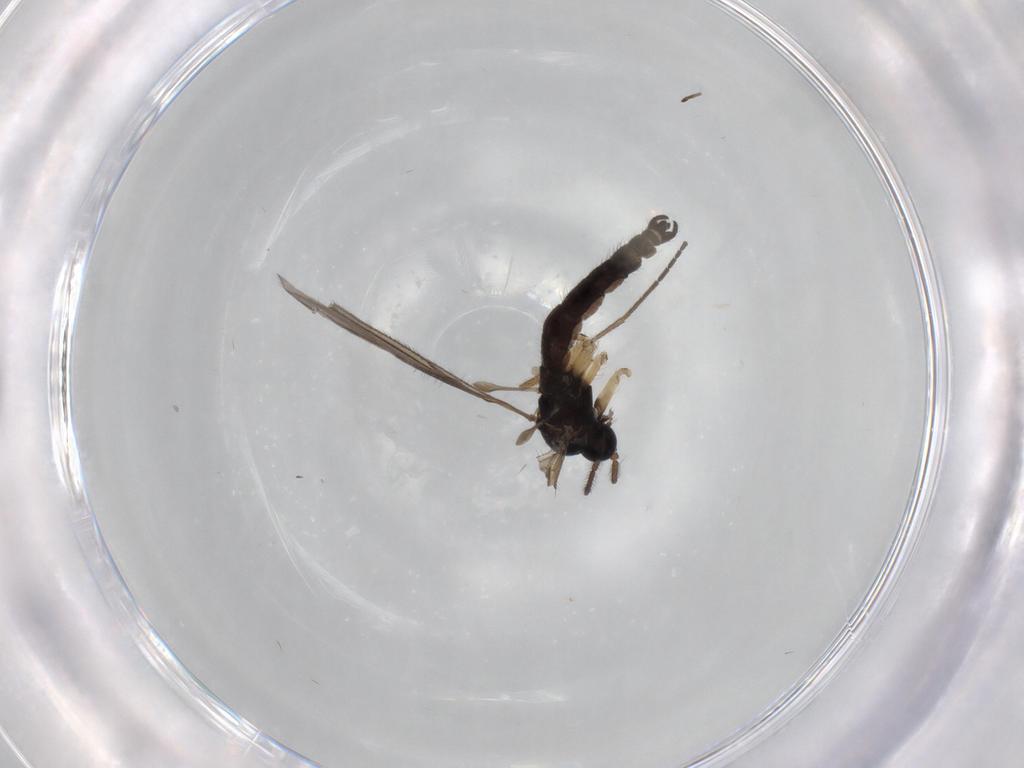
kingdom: Animalia
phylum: Arthropoda
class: Insecta
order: Diptera
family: Sciaridae
